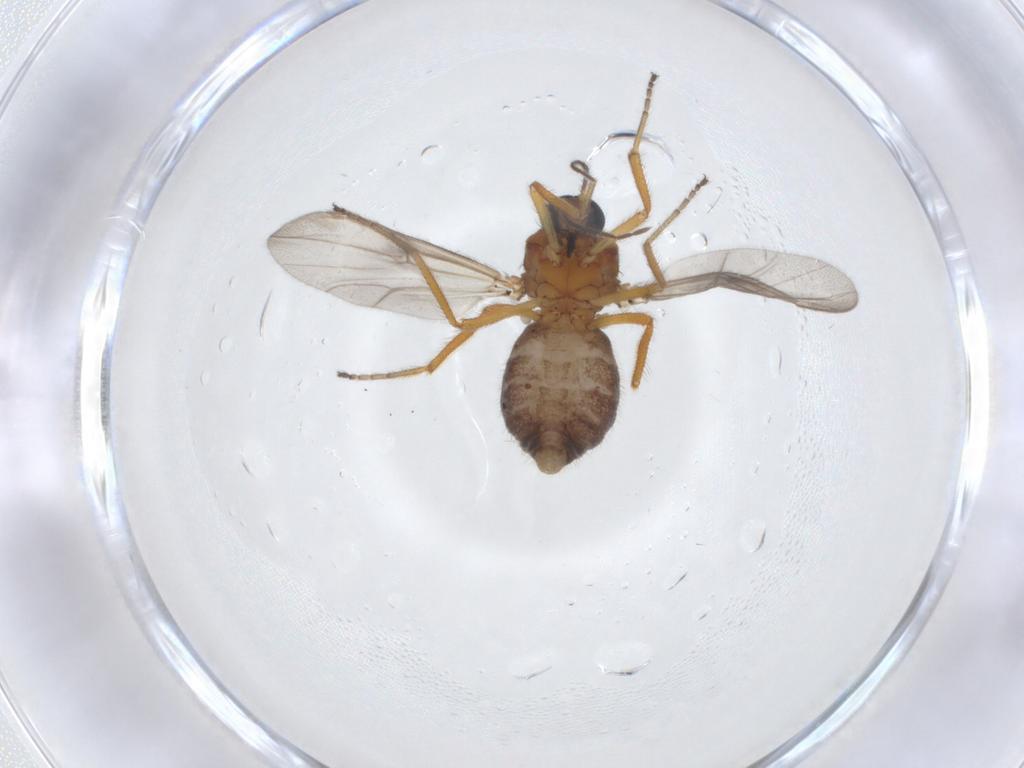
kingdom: Animalia
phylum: Arthropoda
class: Insecta
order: Diptera
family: Ceratopogonidae
